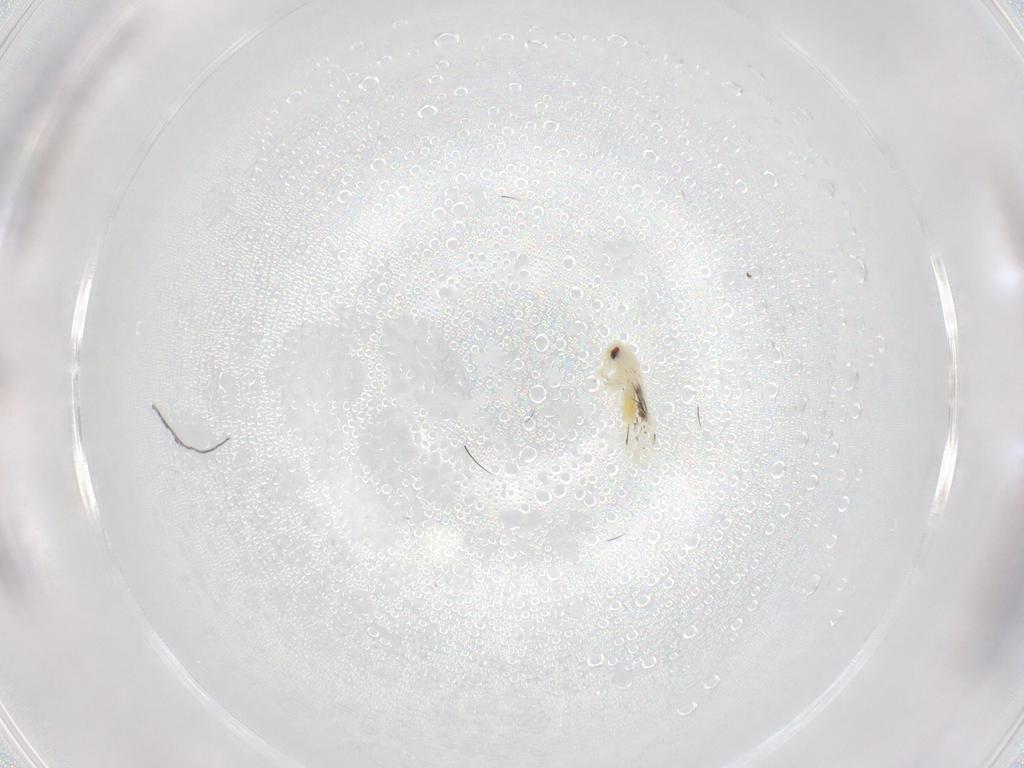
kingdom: Animalia
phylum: Arthropoda
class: Insecta
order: Hemiptera
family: Aleyrodidae
